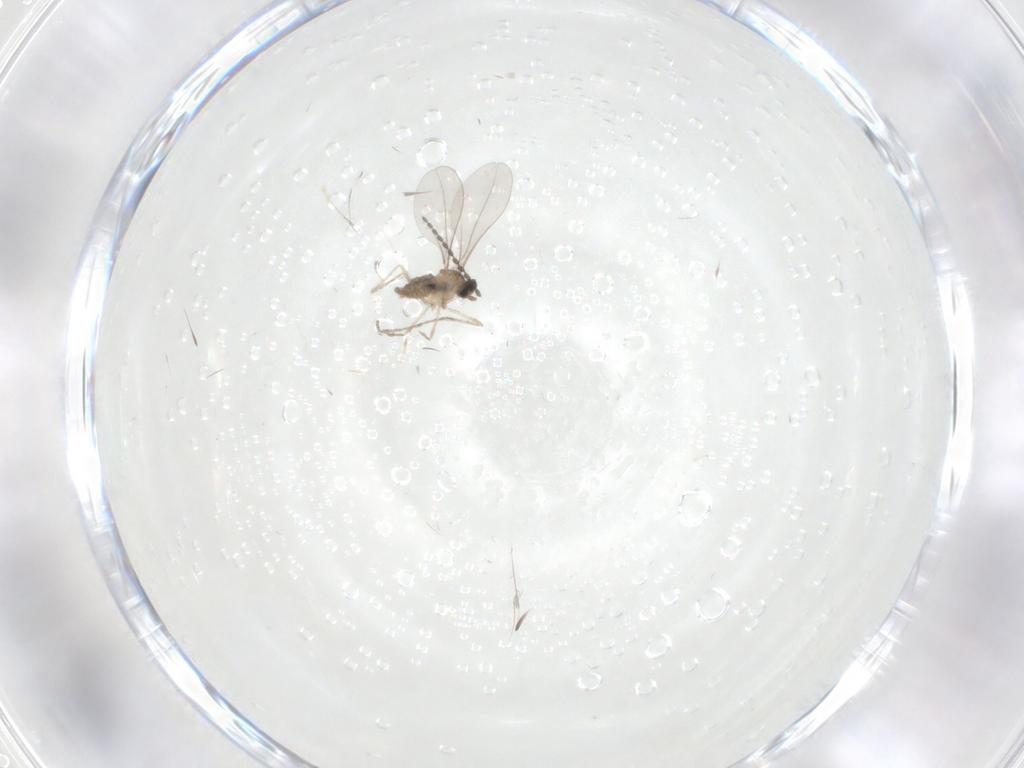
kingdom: Animalia
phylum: Arthropoda
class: Insecta
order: Diptera
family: Cecidomyiidae
